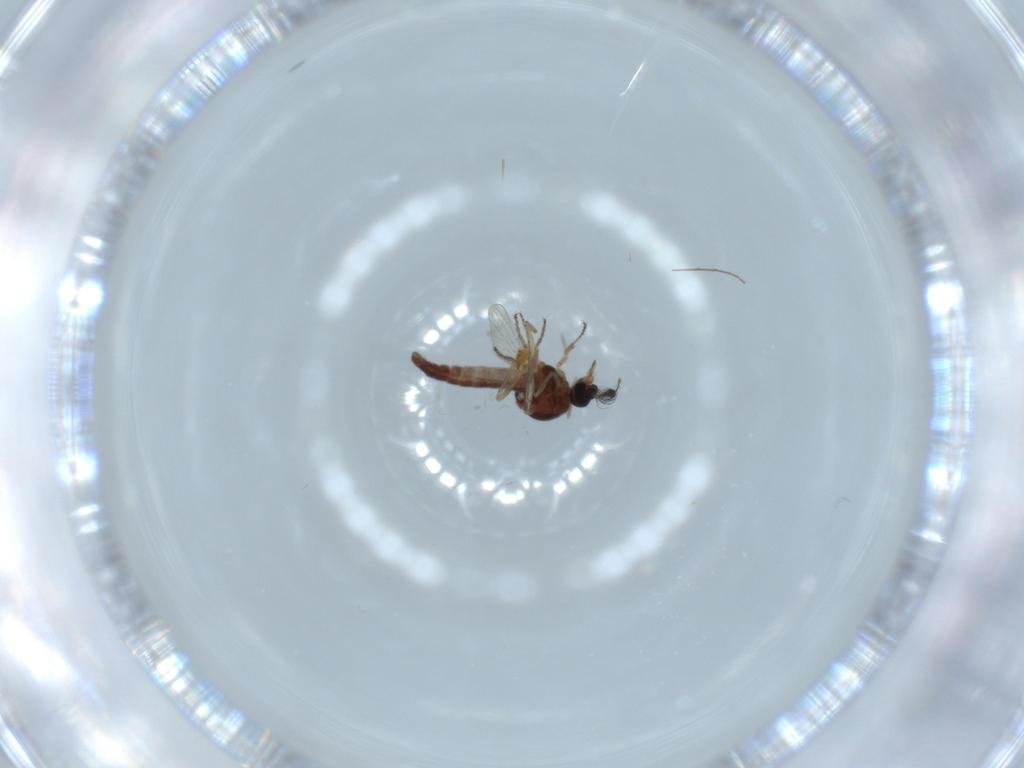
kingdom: Animalia
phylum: Arthropoda
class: Insecta
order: Diptera
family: Ceratopogonidae
